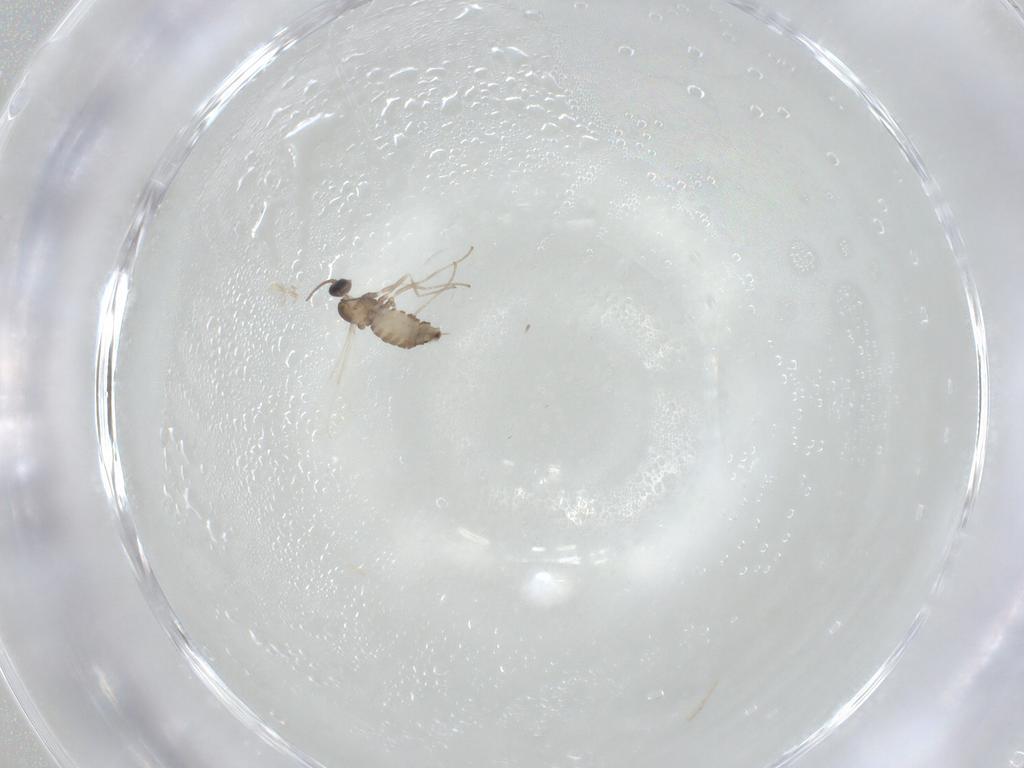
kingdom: Animalia
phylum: Arthropoda
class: Insecta
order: Diptera
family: Cecidomyiidae
